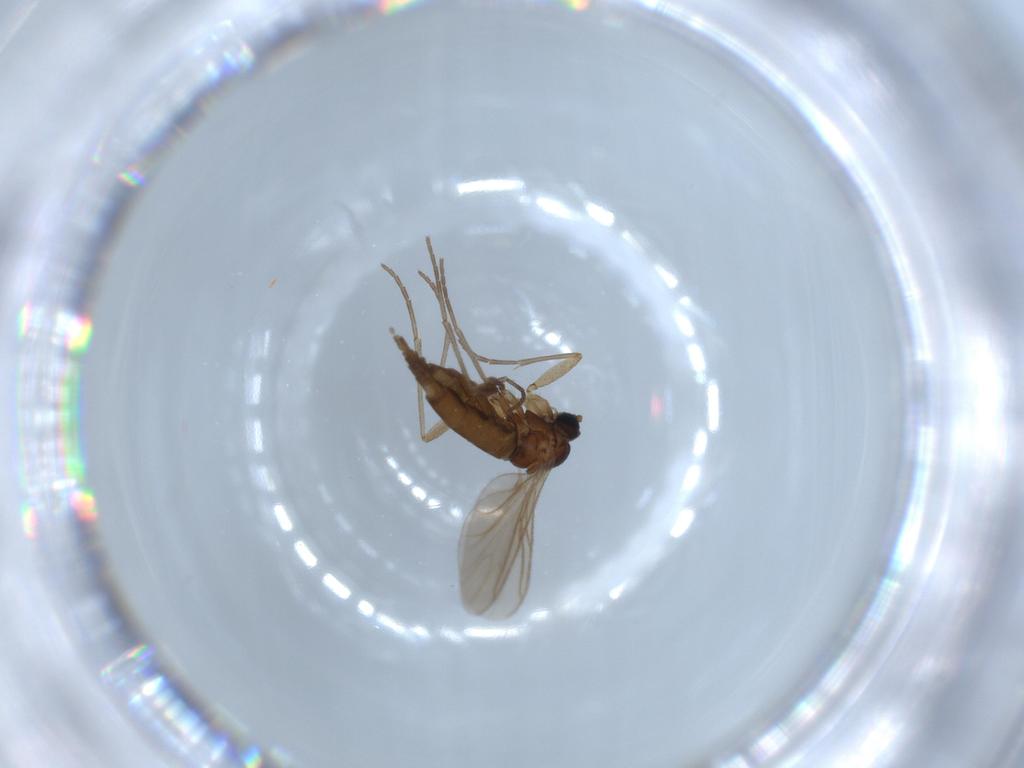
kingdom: Animalia
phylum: Arthropoda
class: Insecta
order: Diptera
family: Sciaridae
